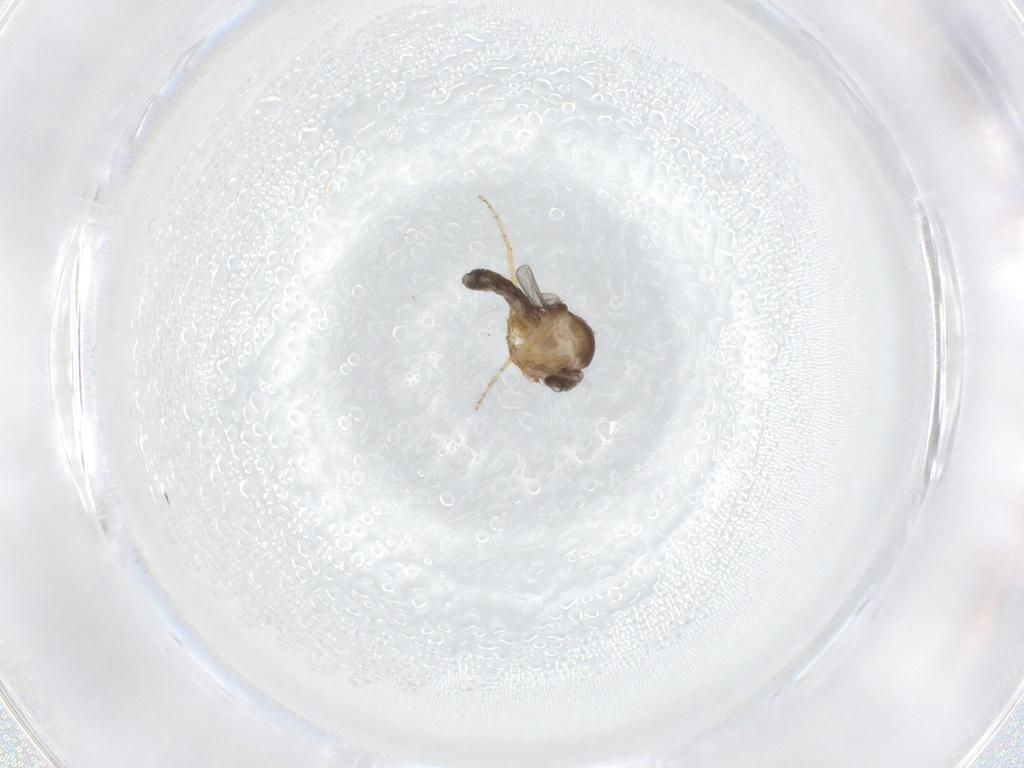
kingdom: Animalia
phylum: Arthropoda
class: Insecta
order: Diptera
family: Ceratopogonidae
